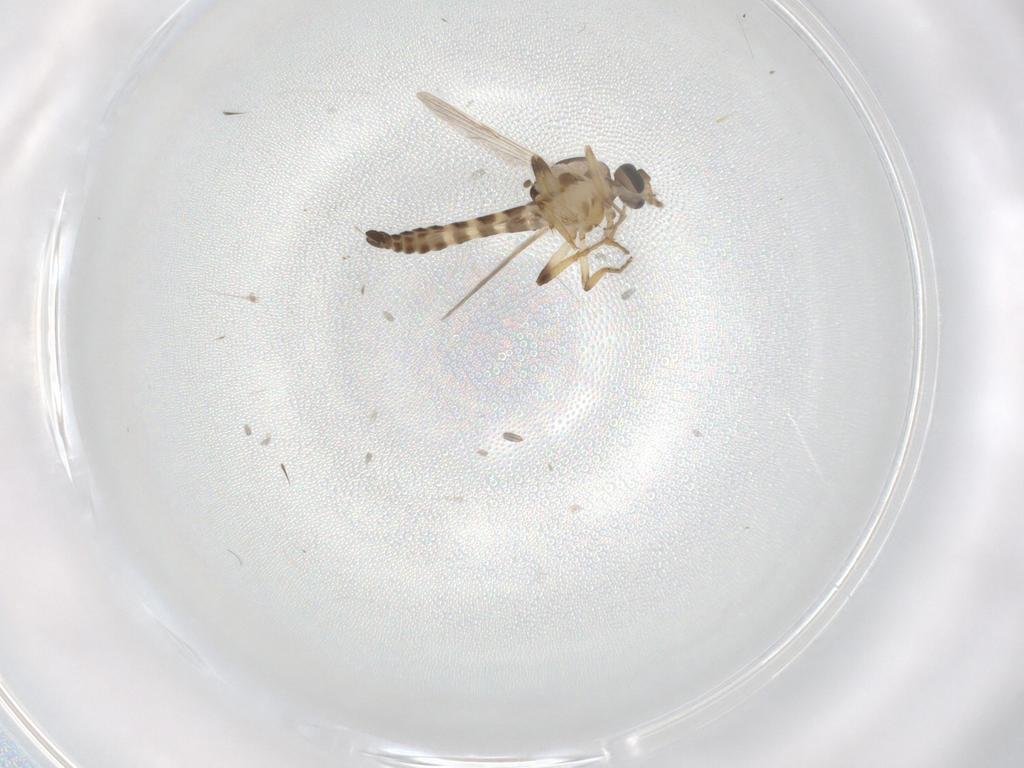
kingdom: Animalia
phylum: Arthropoda
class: Insecta
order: Diptera
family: Ceratopogonidae
